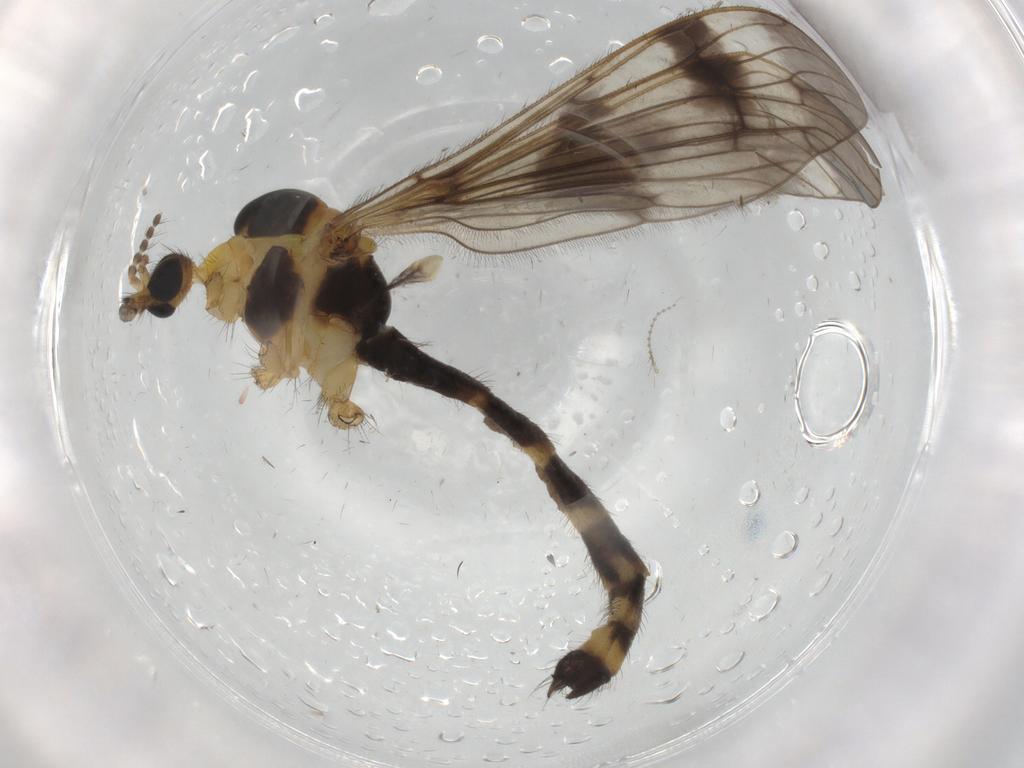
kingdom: Animalia
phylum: Arthropoda
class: Insecta
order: Diptera
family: Limoniidae
